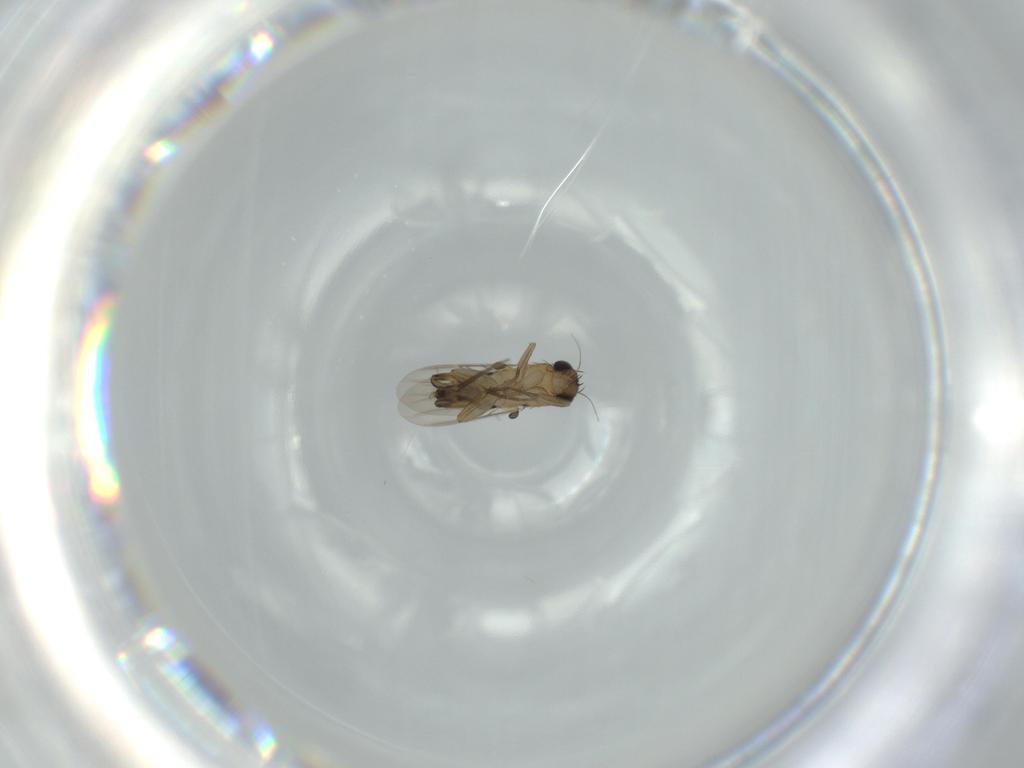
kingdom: Animalia
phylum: Arthropoda
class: Insecta
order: Diptera
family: Phoridae
